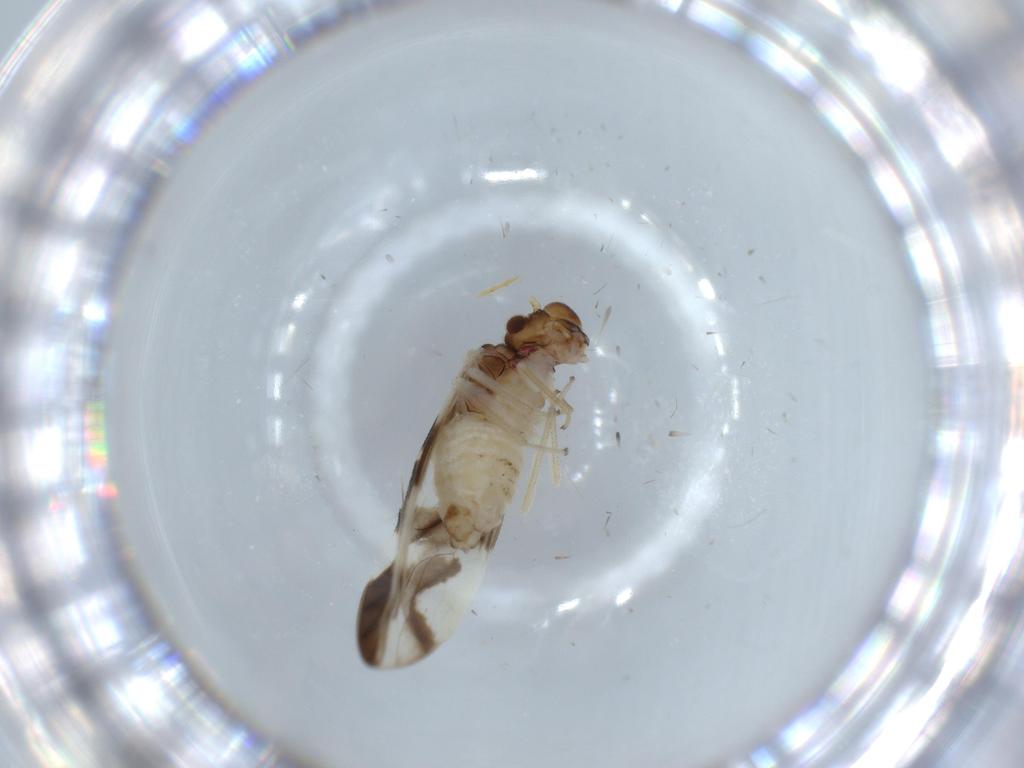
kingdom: Animalia
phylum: Arthropoda
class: Insecta
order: Psocodea
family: Caeciliusidae
